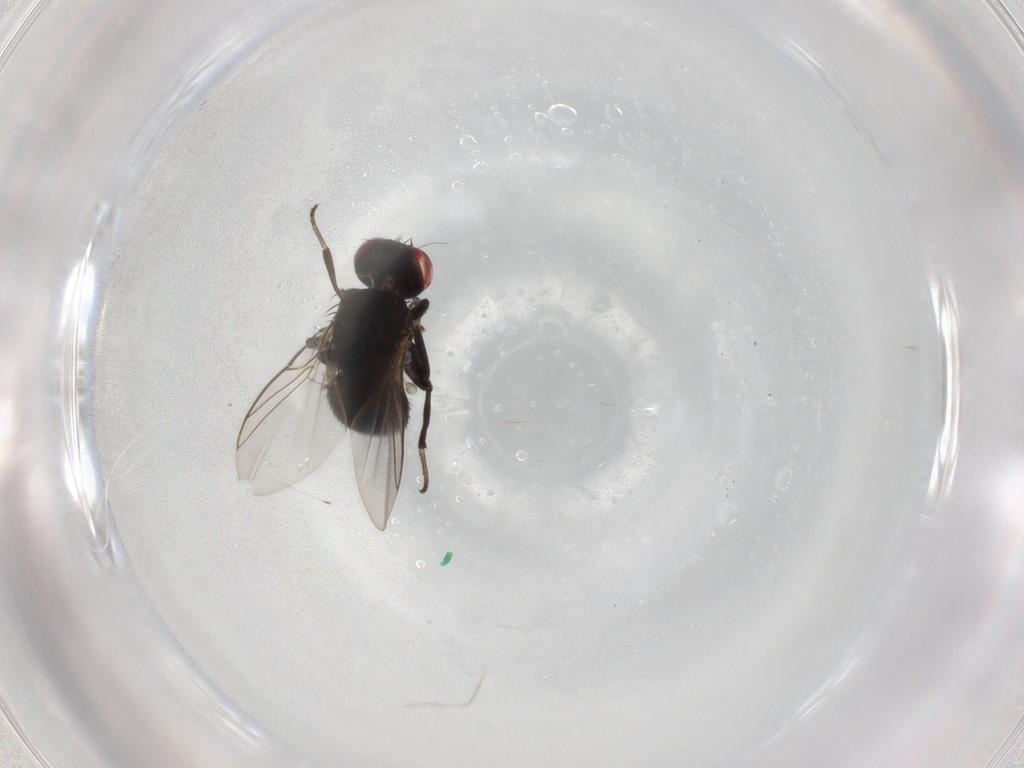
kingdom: Animalia
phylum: Arthropoda
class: Insecta
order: Diptera
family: Agromyzidae
